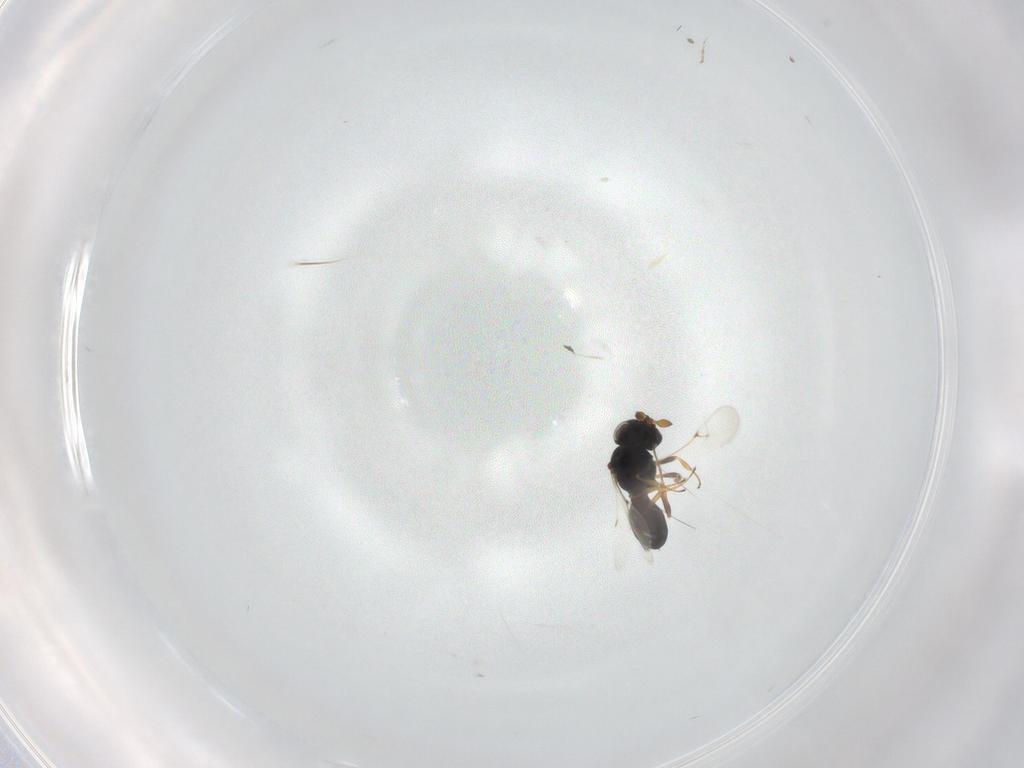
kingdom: Animalia
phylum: Arthropoda
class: Insecta
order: Hymenoptera
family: Scelionidae
